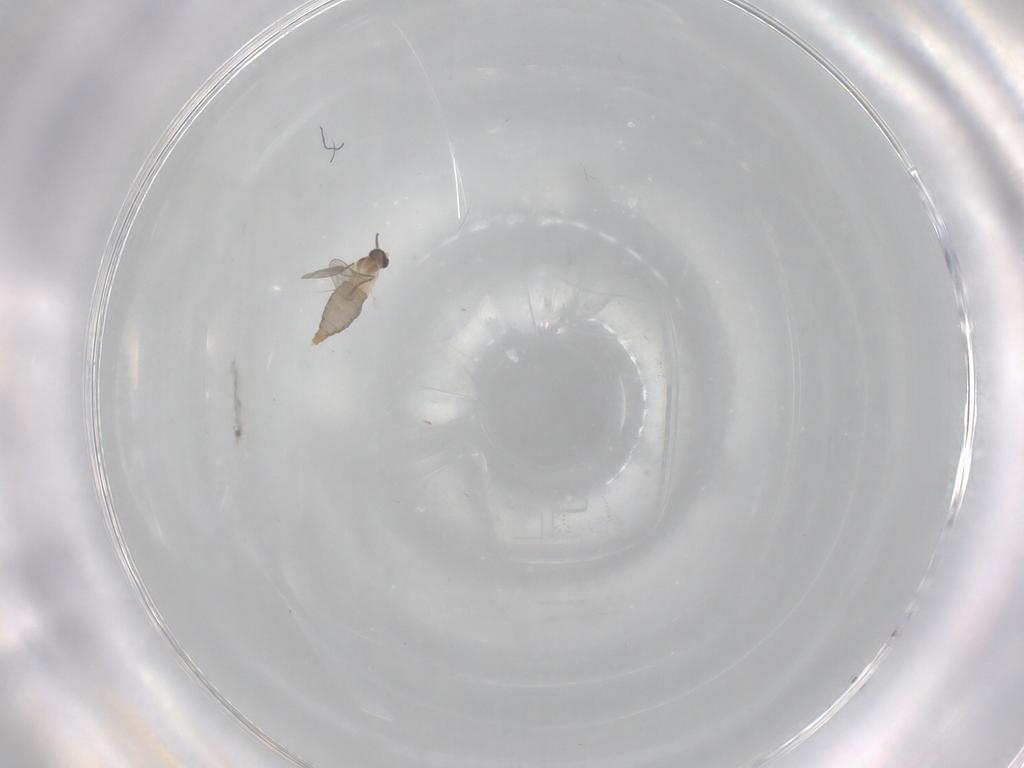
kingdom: Animalia
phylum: Arthropoda
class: Insecta
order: Diptera
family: Cecidomyiidae
